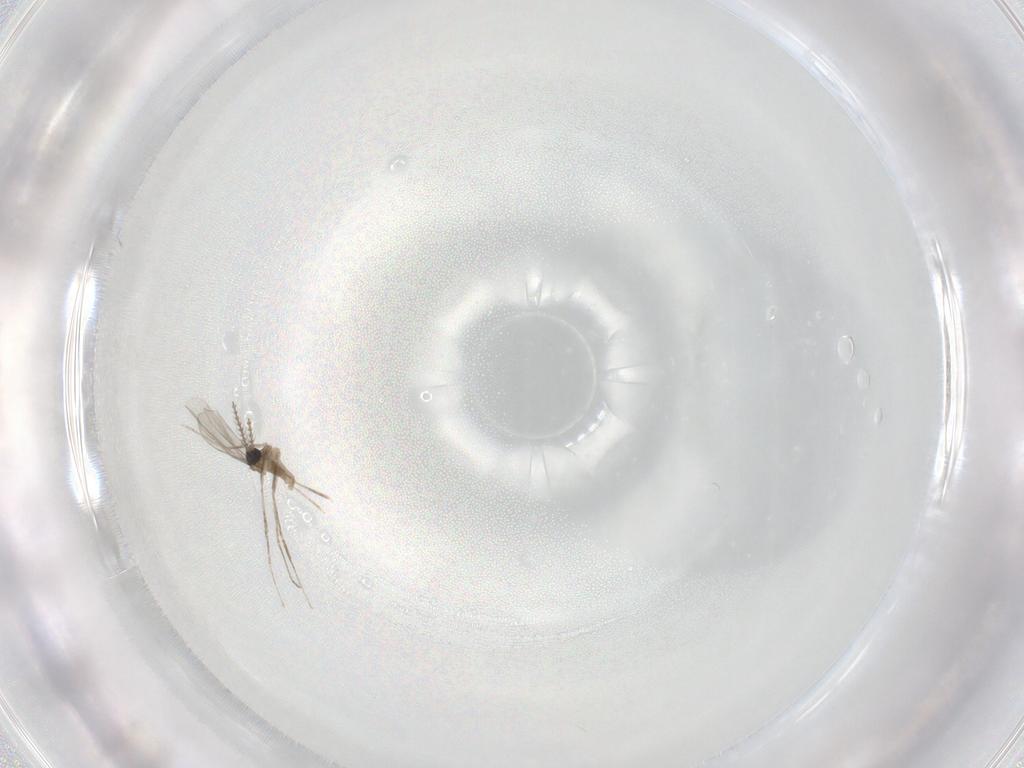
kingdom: Animalia
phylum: Arthropoda
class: Insecta
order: Diptera
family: Cecidomyiidae
